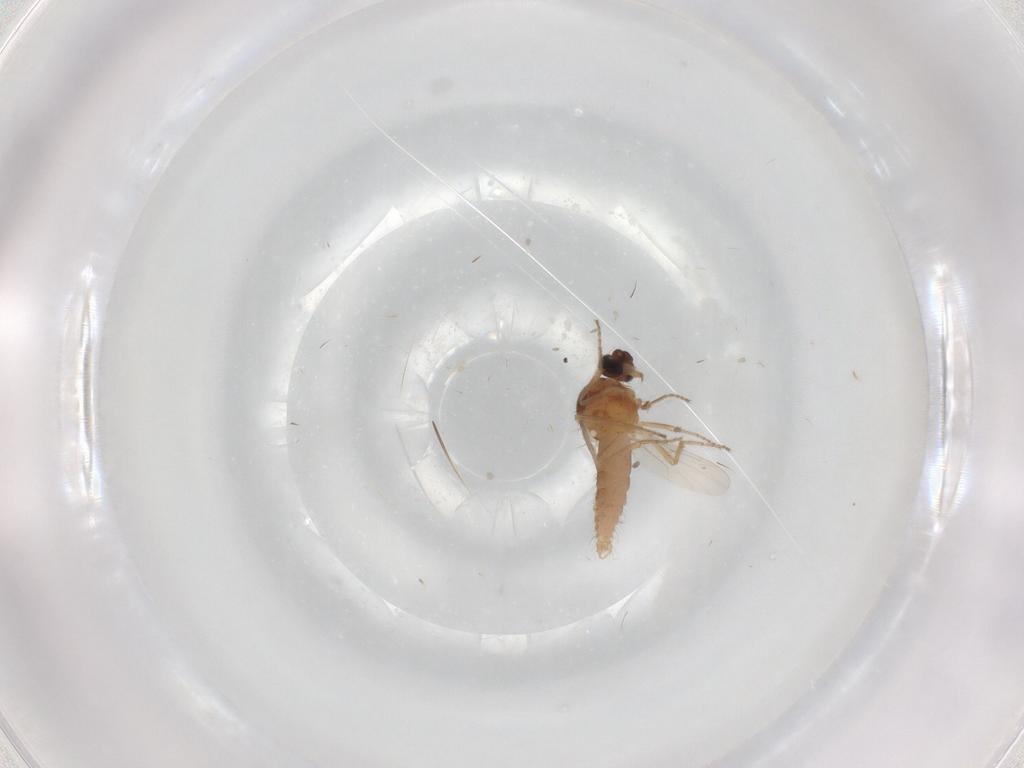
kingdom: Animalia
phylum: Arthropoda
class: Insecta
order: Diptera
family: Ceratopogonidae
